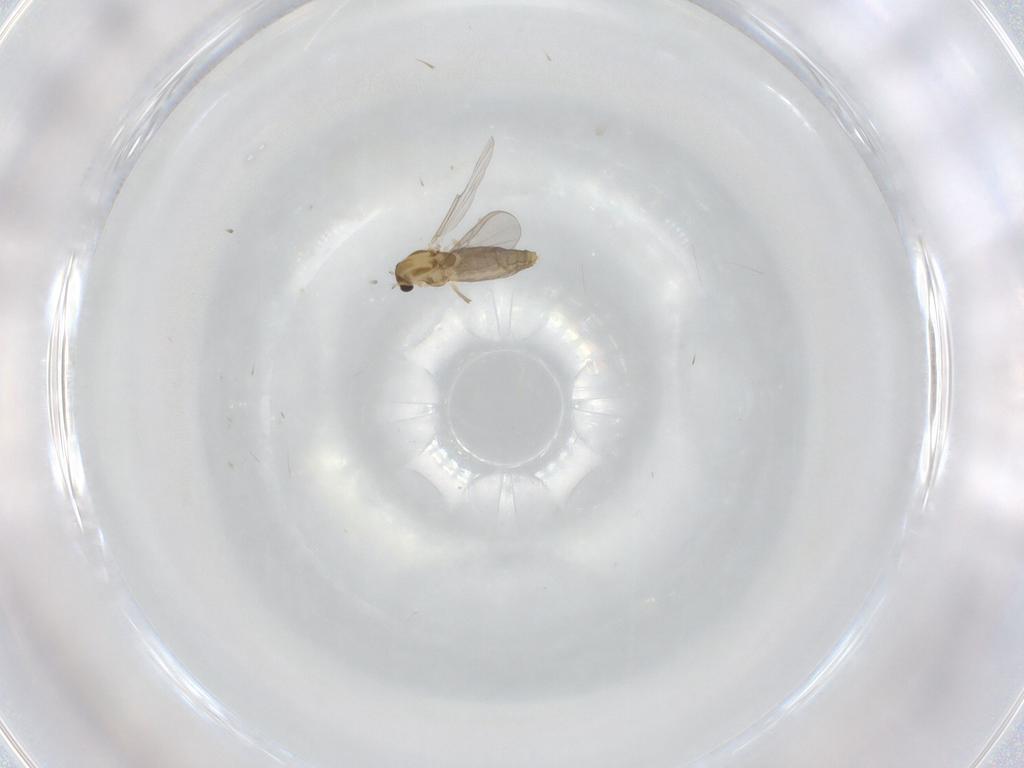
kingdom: Animalia
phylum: Arthropoda
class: Insecta
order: Diptera
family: Chironomidae
